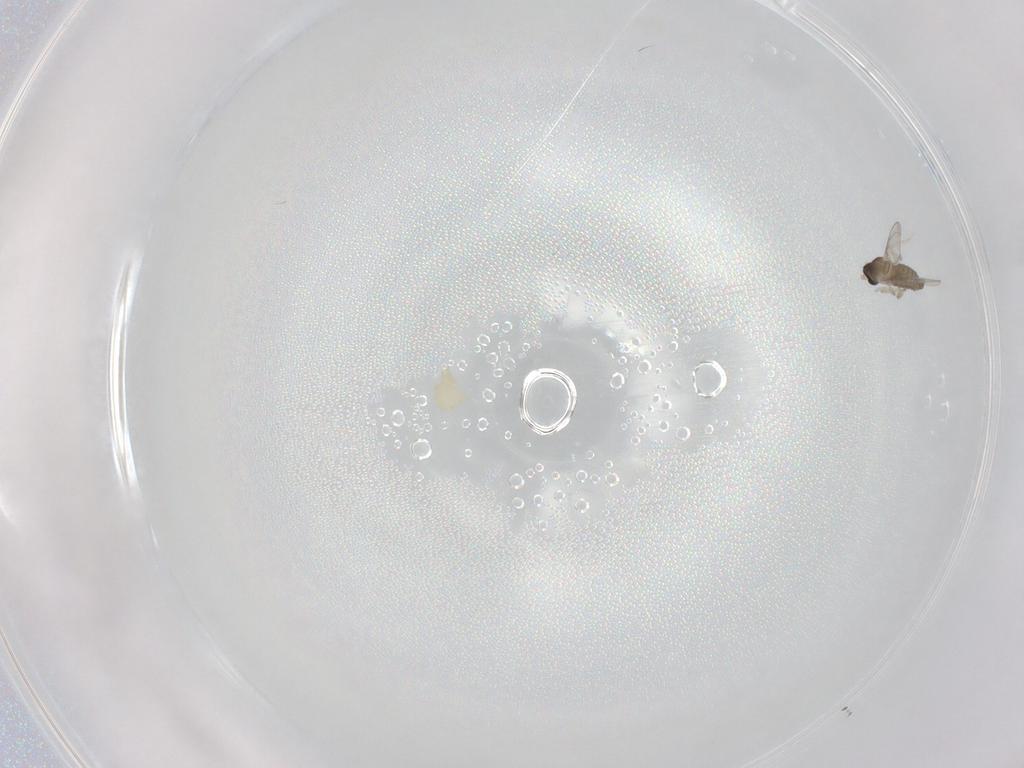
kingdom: Animalia
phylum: Arthropoda
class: Insecta
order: Diptera
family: Cecidomyiidae
